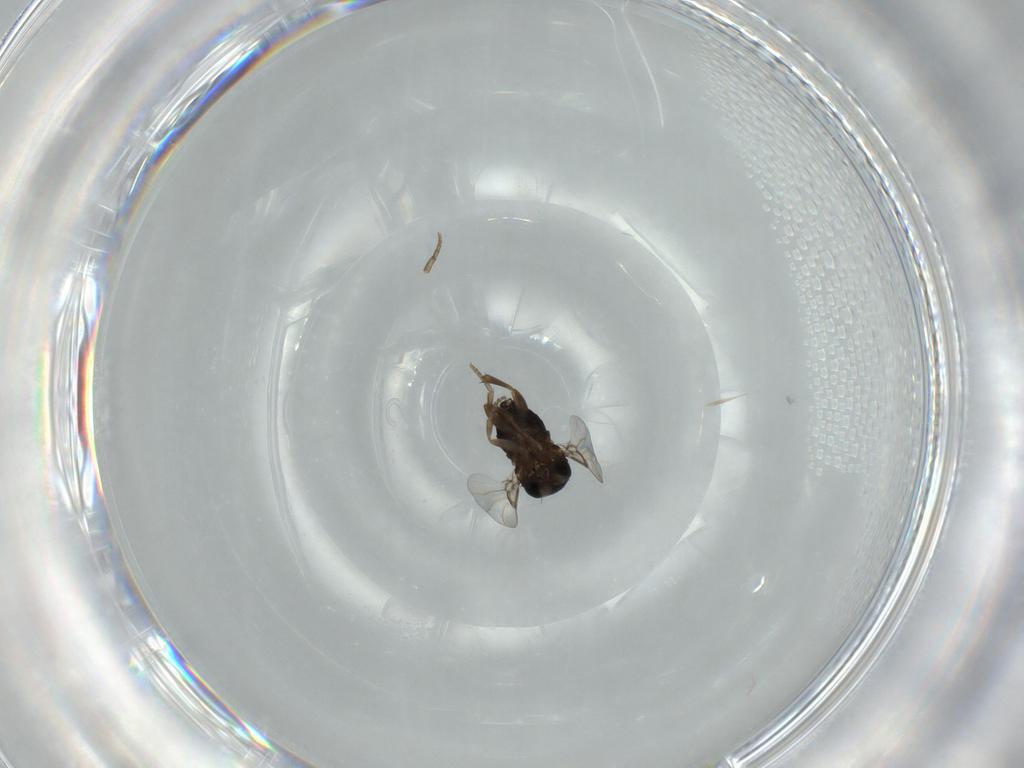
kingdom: Animalia
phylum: Arthropoda
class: Insecta
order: Diptera
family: Phoridae
